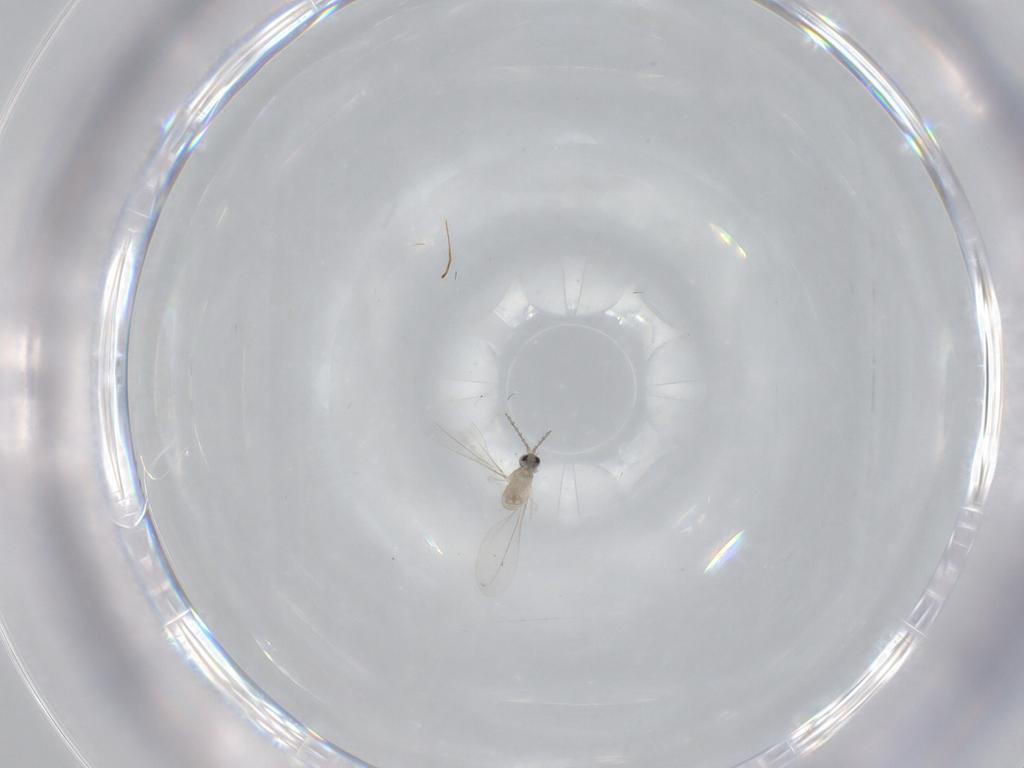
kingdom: Animalia
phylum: Arthropoda
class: Insecta
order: Diptera
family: Cecidomyiidae
